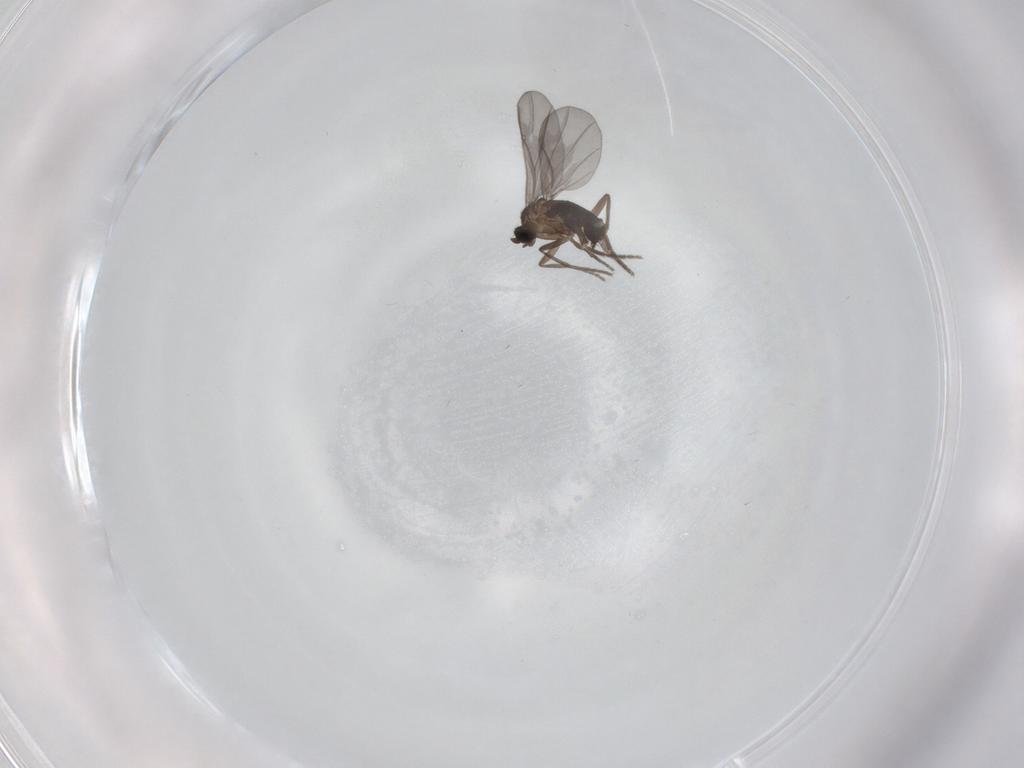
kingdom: Animalia
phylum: Arthropoda
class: Insecta
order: Diptera
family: Phoridae
